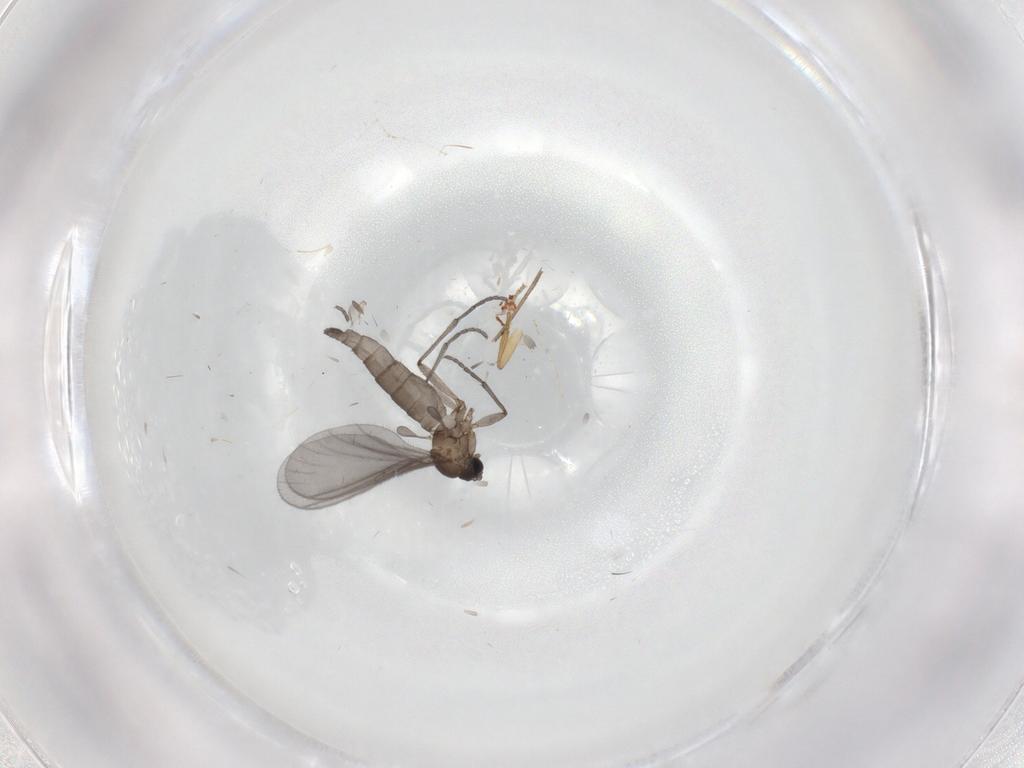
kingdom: Animalia
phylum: Arthropoda
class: Insecta
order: Diptera
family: Sciaridae
